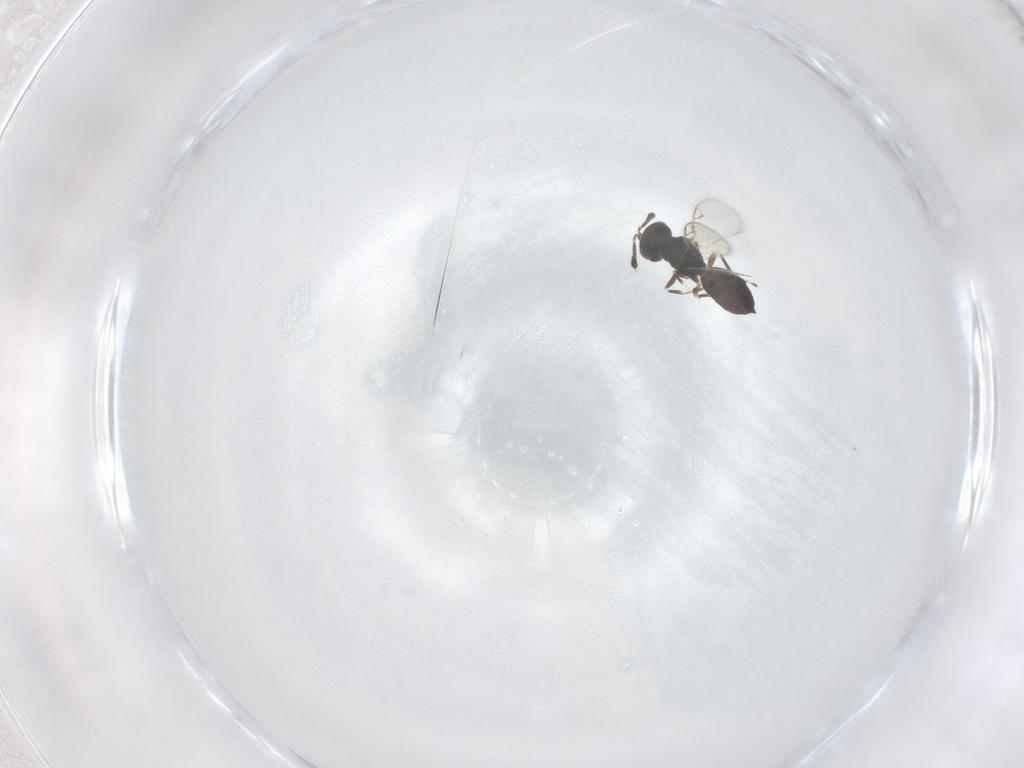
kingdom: Animalia
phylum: Arthropoda
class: Insecta
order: Hymenoptera
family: Pteromalidae
